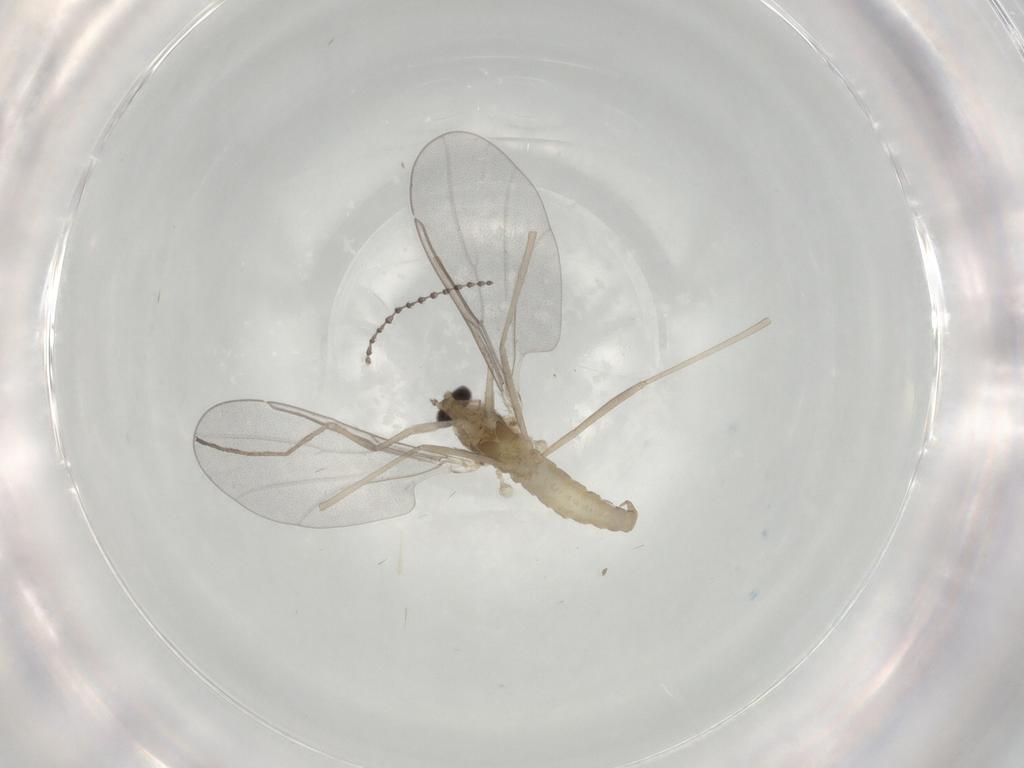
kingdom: Animalia
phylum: Arthropoda
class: Insecta
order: Diptera
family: Cecidomyiidae
